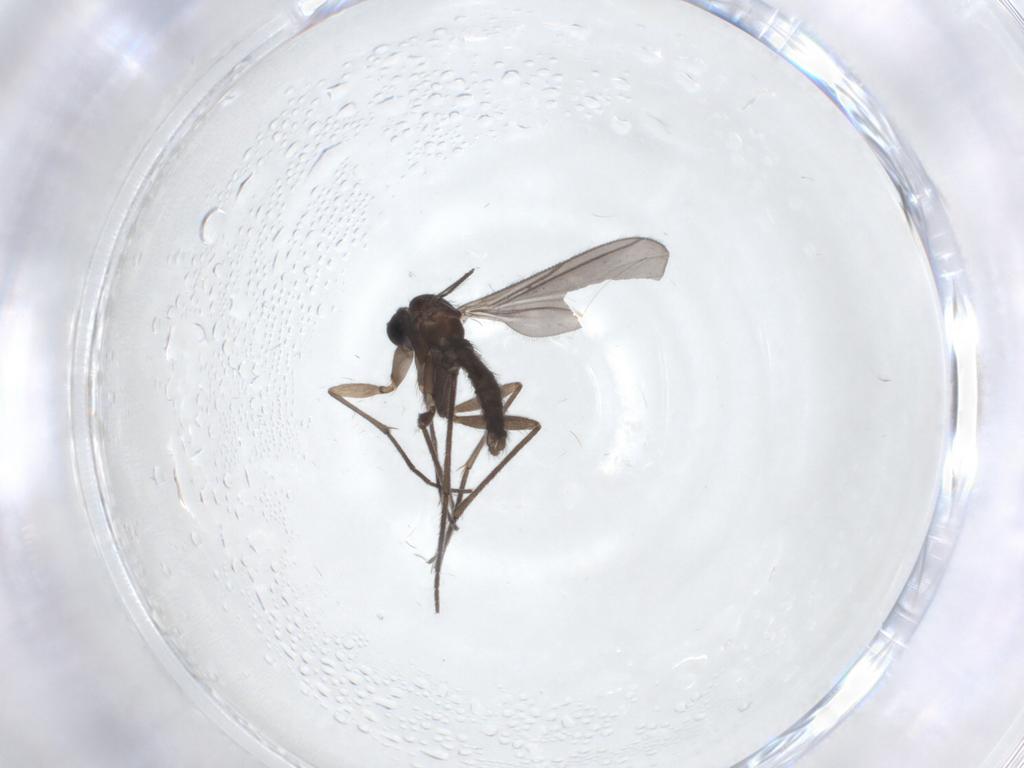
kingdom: Animalia
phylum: Arthropoda
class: Insecta
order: Diptera
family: Sciaridae
